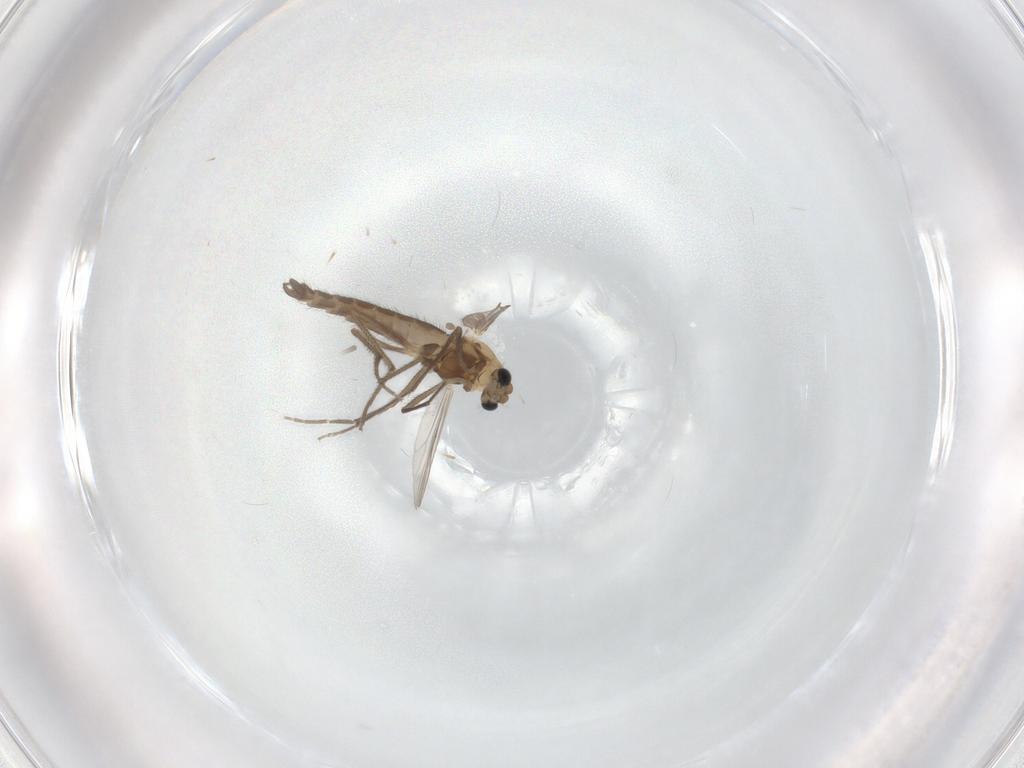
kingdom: Animalia
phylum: Arthropoda
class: Insecta
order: Diptera
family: Chironomidae
